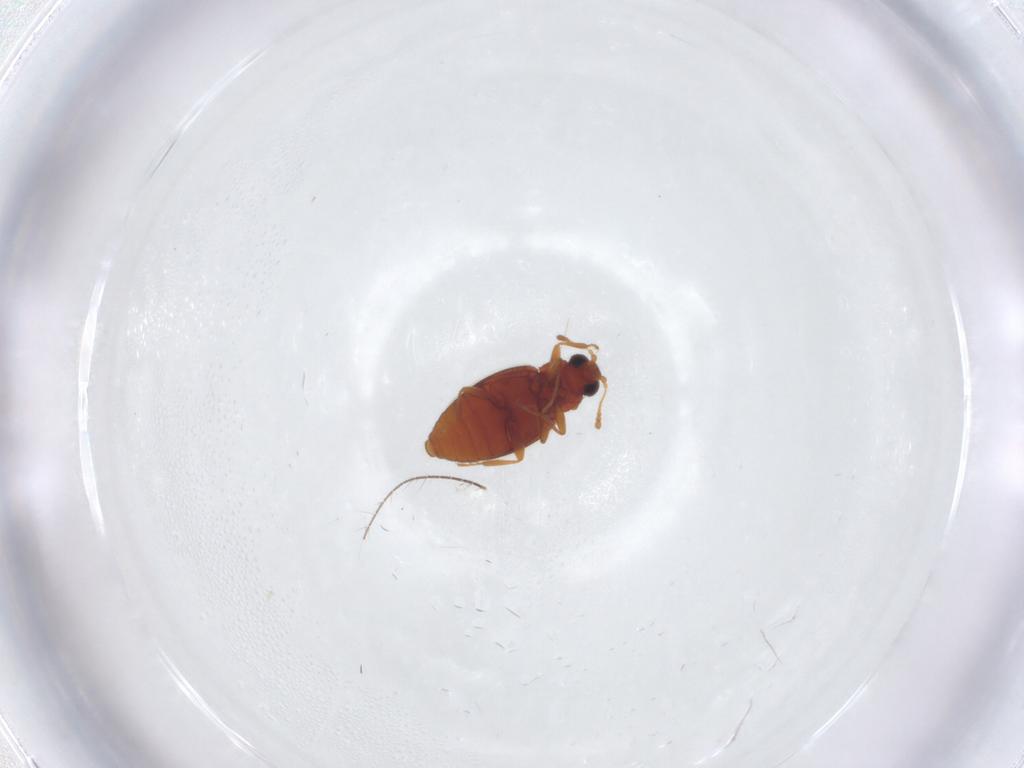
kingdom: Animalia
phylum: Arthropoda
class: Insecta
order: Coleoptera
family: Latridiidae
